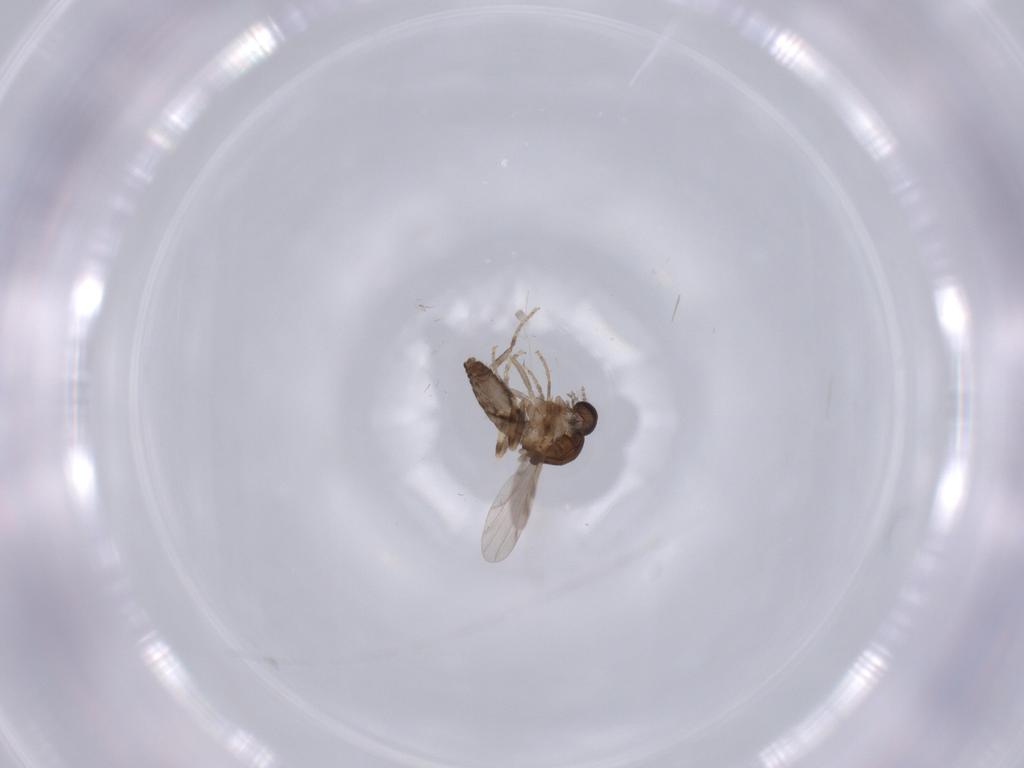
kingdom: Animalia
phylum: Arthropoda
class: Insecta
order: Diptera
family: Ceratopogonidae
